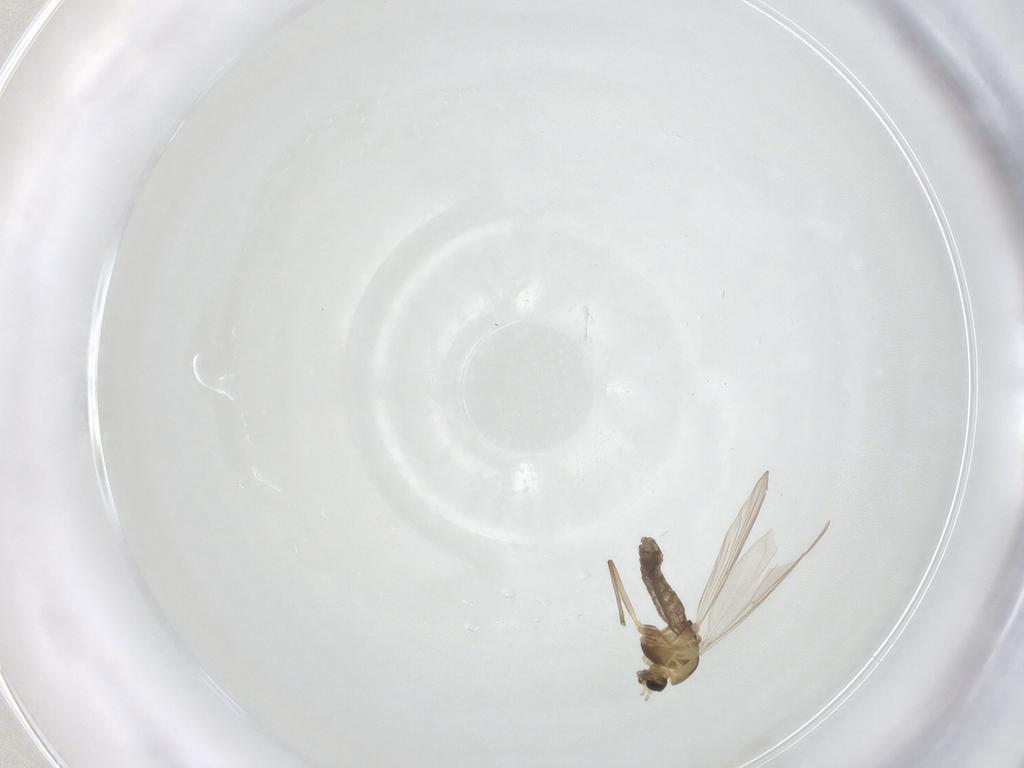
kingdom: Animalia
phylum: Arthropoda
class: Insecta
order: Diptera
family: Chironomidae
